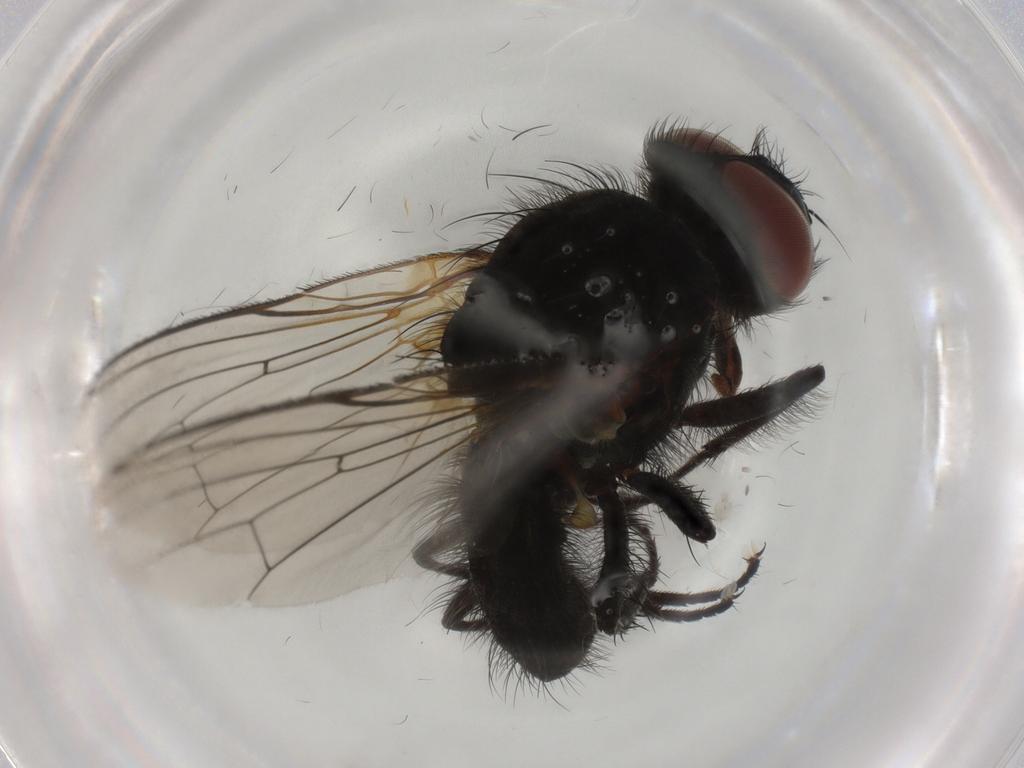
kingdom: Animalia
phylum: Arthropoda
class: Insecta
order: Diptera
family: Anthomyiidae
